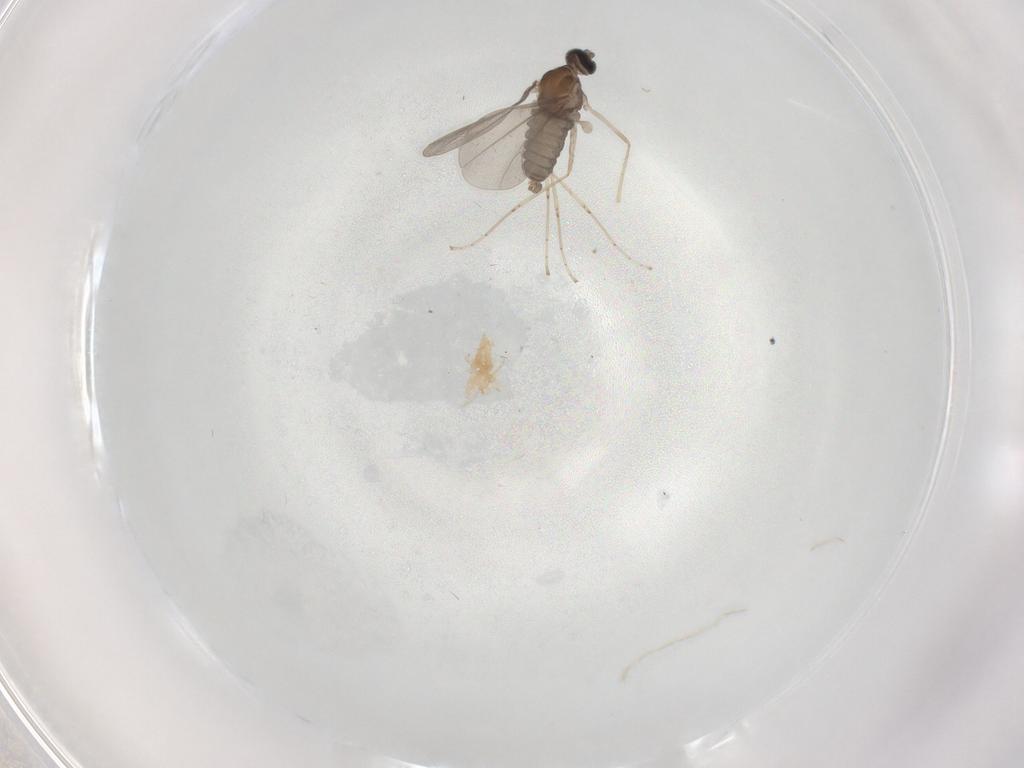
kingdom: Animalia
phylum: Arthropoda
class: Insecta
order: Diptera
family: Cecidomyiidae
